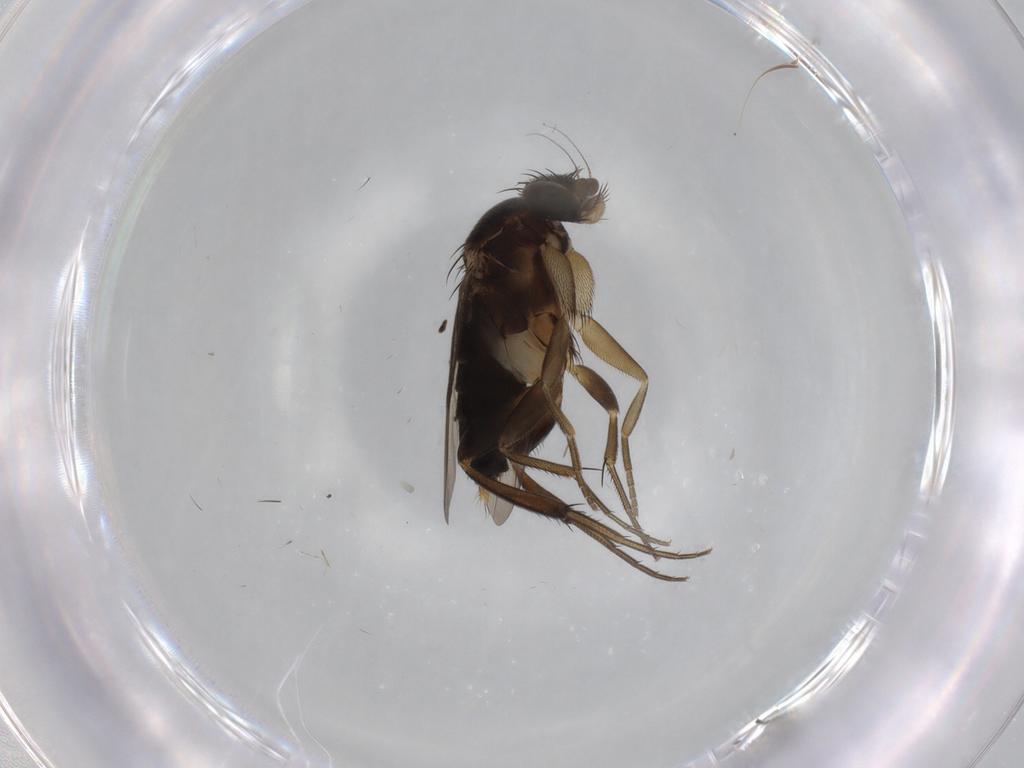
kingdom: Animalia
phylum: Arthropoda
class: Insecta
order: Diptera
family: Phoridae
